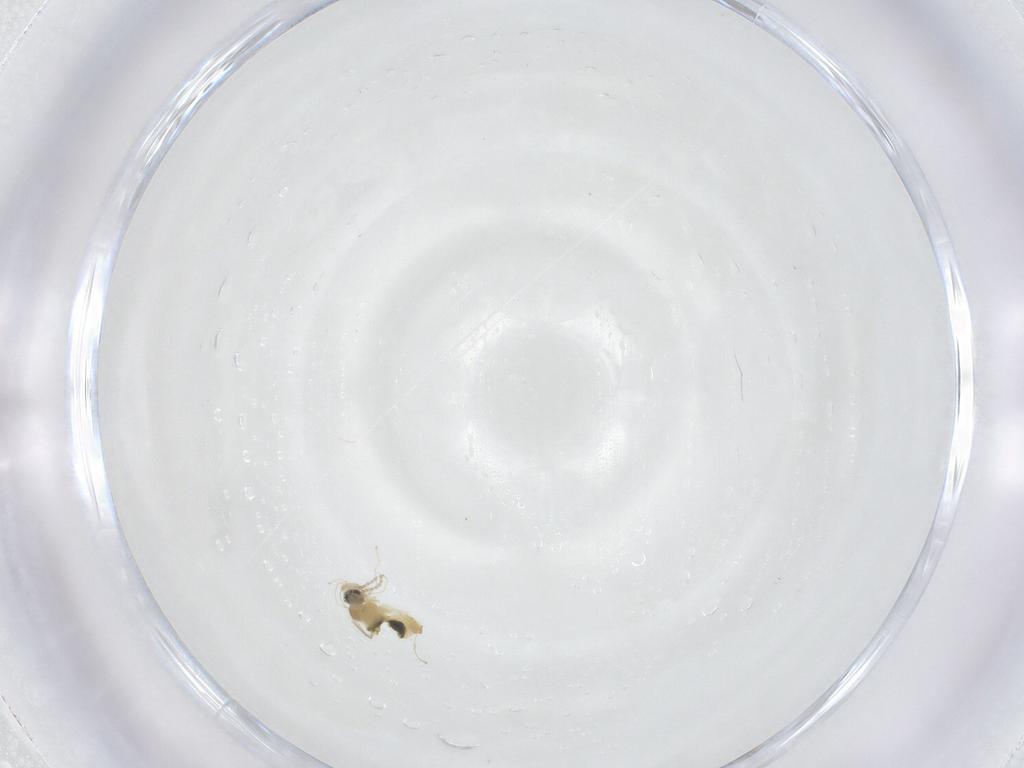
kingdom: Animalia
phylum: Arthropoda
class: Insecta
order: Diptera
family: Cecidomyiidae
